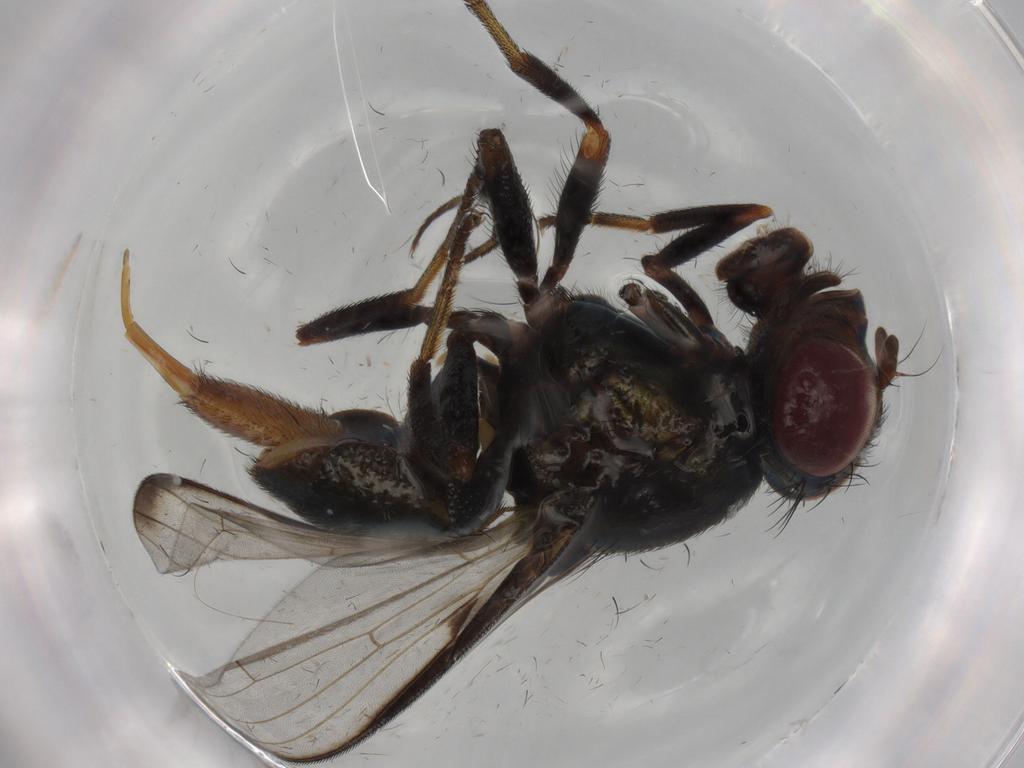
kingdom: Animalia
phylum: Arthropoda
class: Insecta
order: Diptera
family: Ulidiidae
